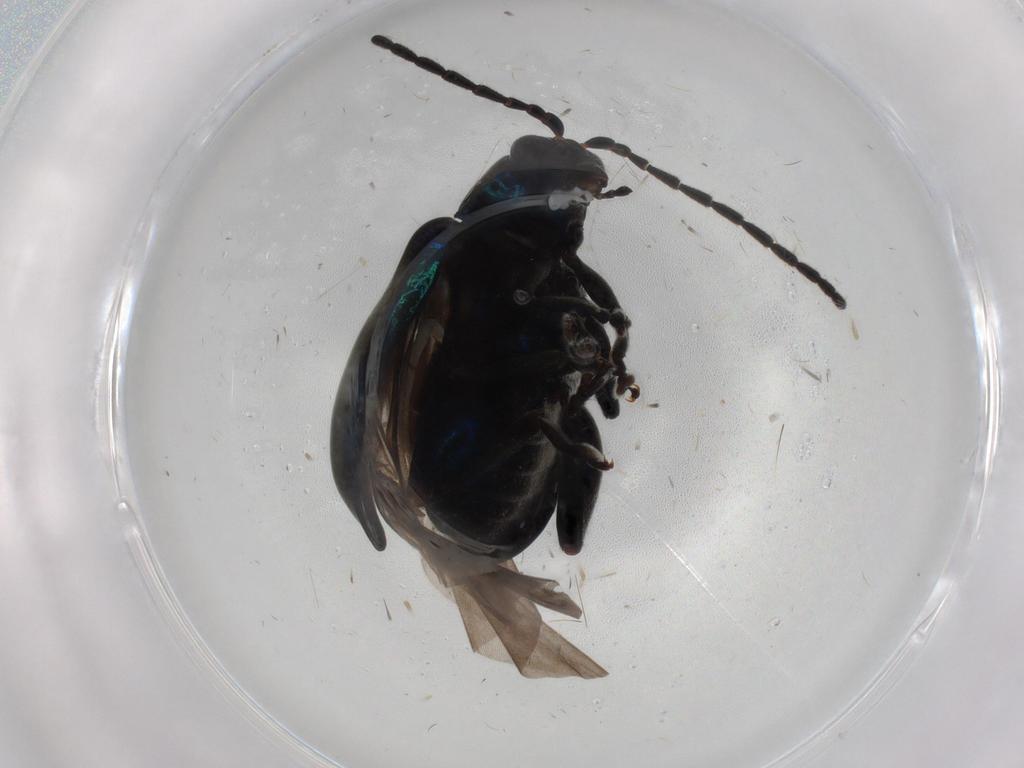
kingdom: Animalia
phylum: Arthropoda
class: Insecta
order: Coleoptera
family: Chrysomelidae
